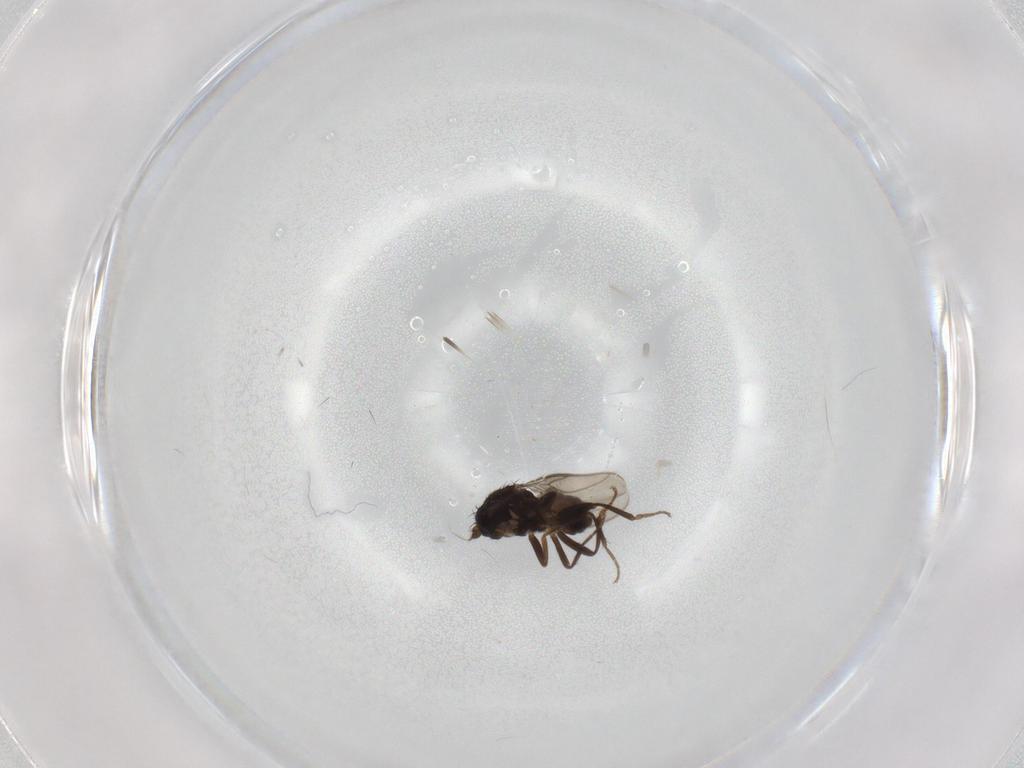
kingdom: Animalia
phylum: Arthropoda
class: Insecta
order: Diptera
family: Sphaeroceridae
